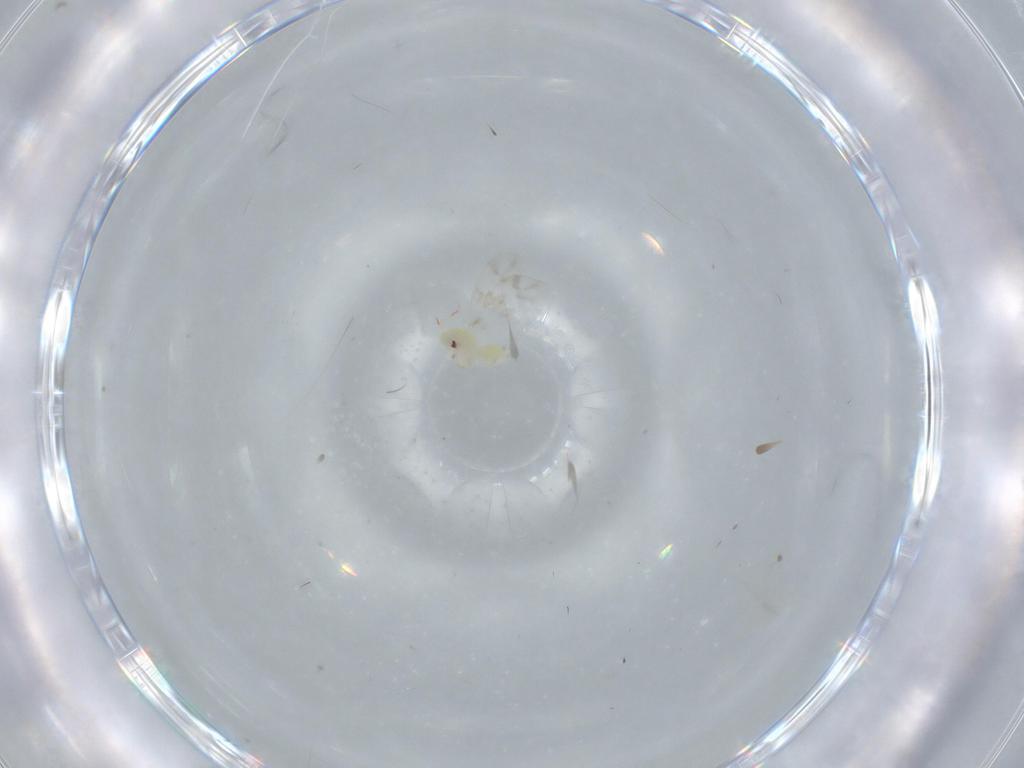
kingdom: Animalia
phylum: Arthropoda
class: Insecta
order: Hemiptera
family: Aleyrodidae
